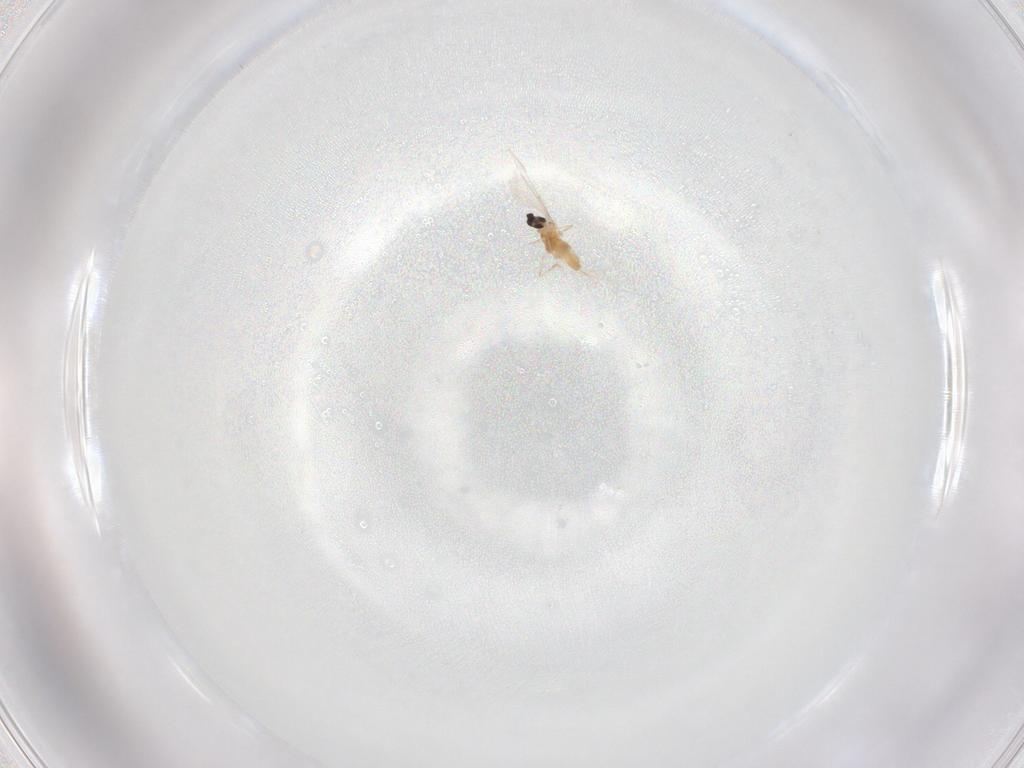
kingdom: Animalia
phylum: Arthropoda
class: Insecta
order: Diptera
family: Cecidomyiidae
